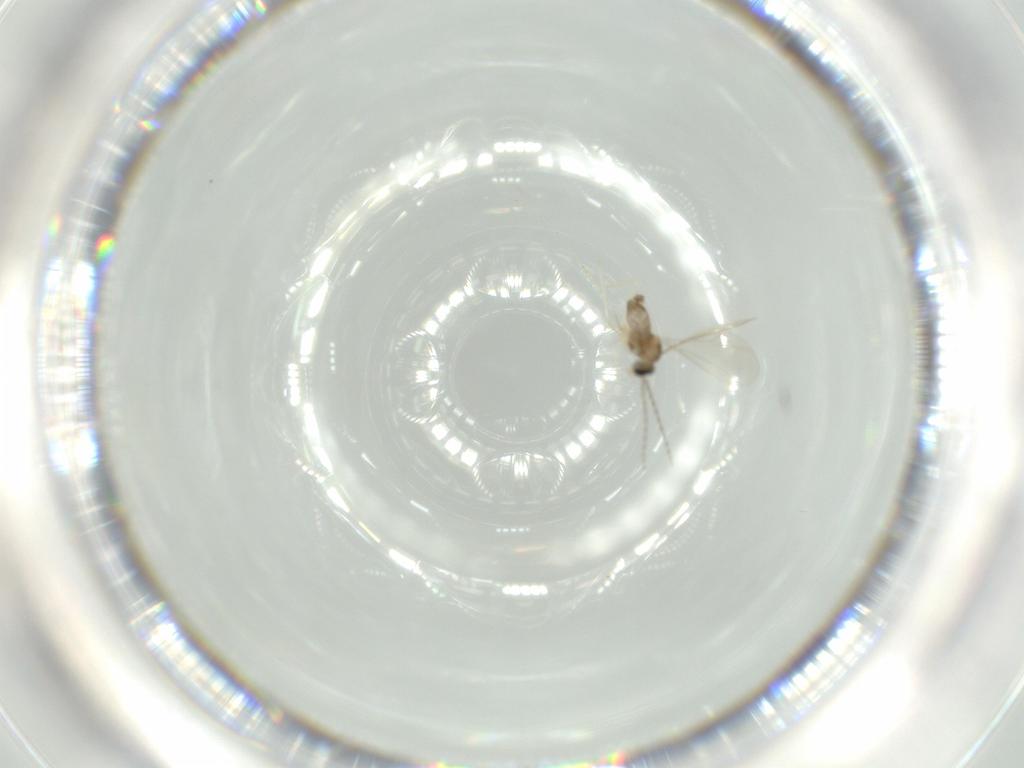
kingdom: Animalia
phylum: Arthropoda
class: Insecta
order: Diptera
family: Cecidomyiidae
